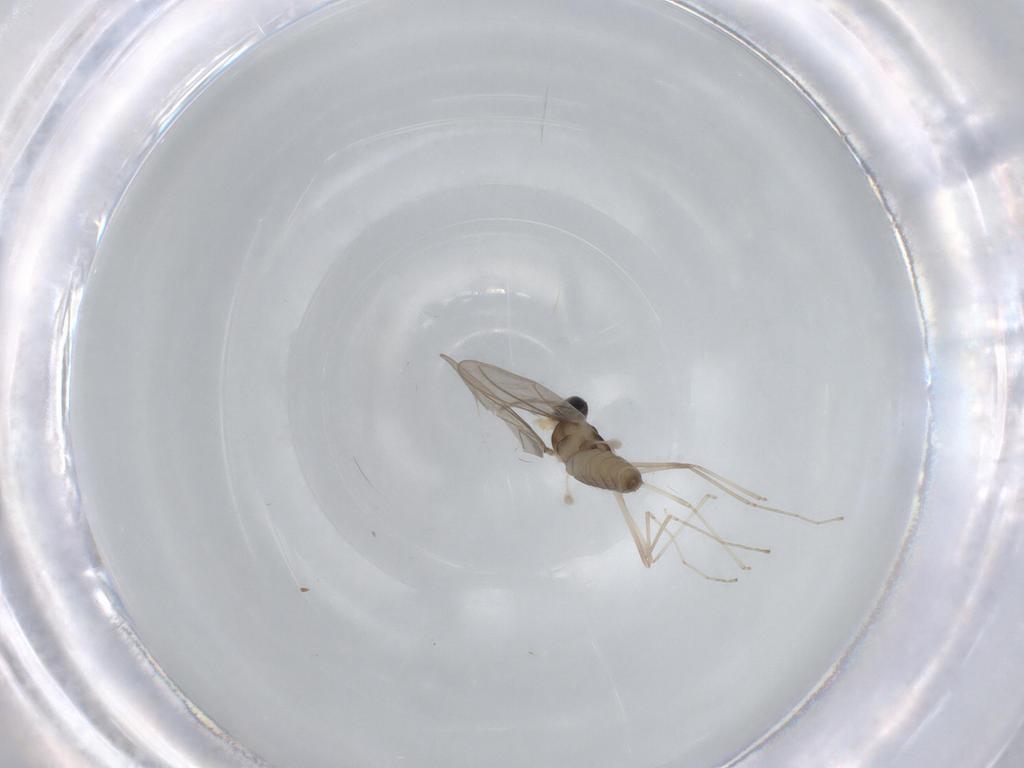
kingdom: Animalia
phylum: Arthropoda
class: Insecta
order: Diptera
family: Cecidomyiidae
